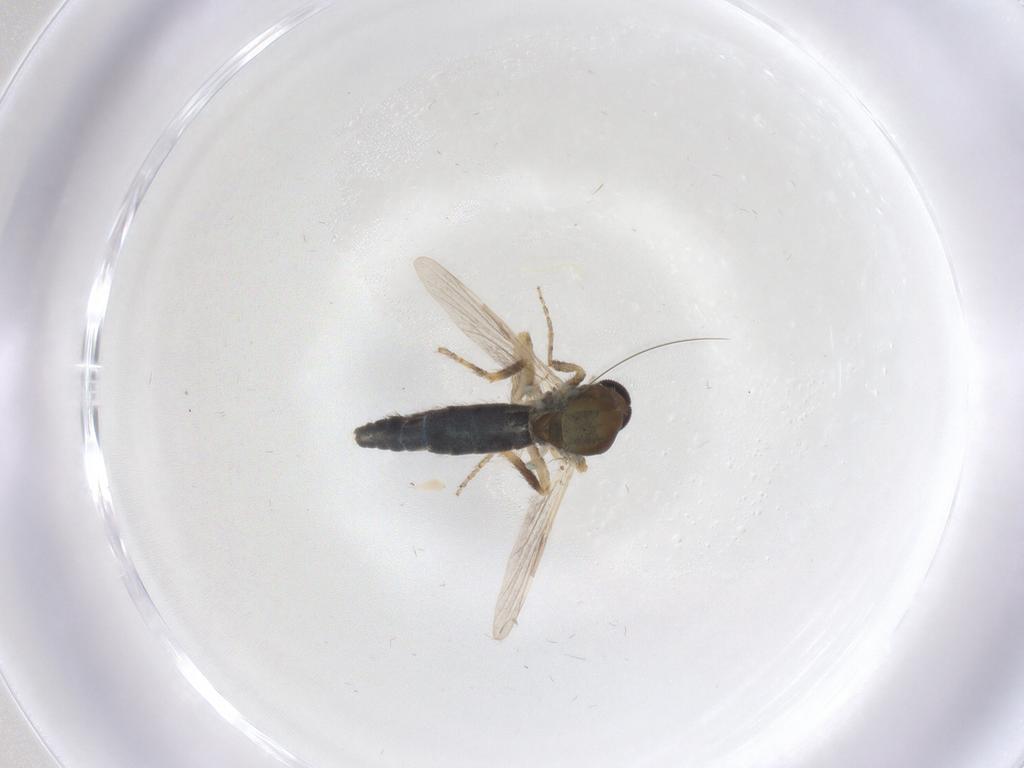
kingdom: Animalia
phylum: Arthropoda
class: Insecta
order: Diptera
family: Ceratopogonidae
